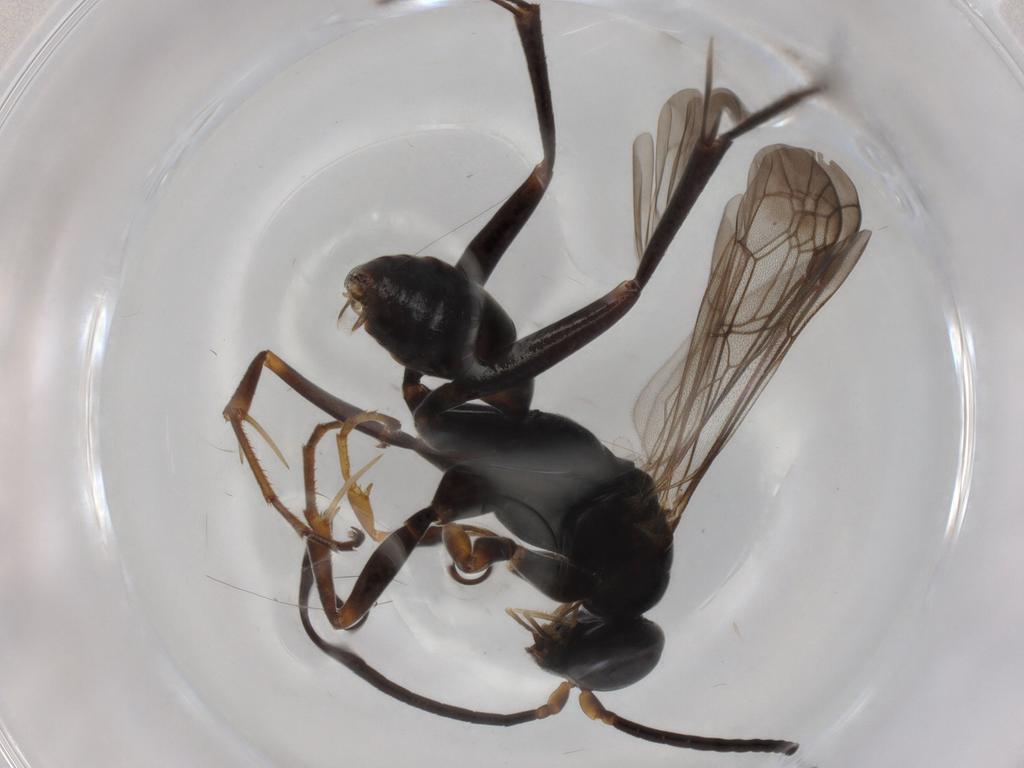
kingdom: Animalia
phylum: Arthropoda
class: Insecta
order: Hymenoptera
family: Pompilidae
